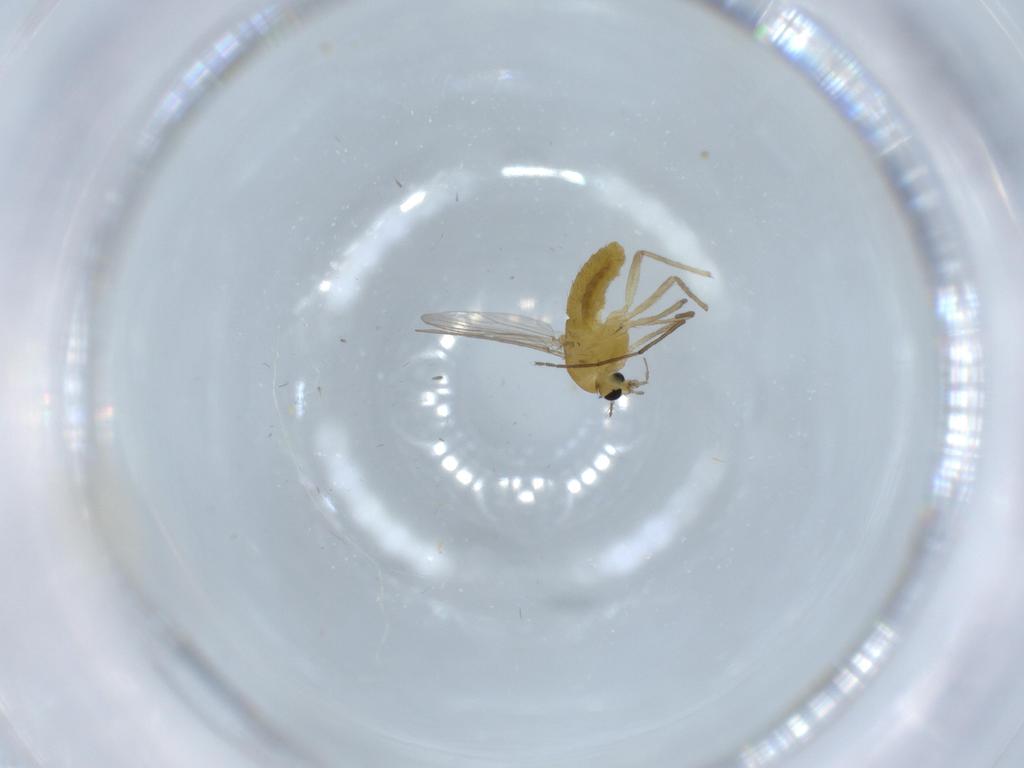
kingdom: Animalia
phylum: Arthropoda
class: Insecta
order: Diptera
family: Chironomidae
